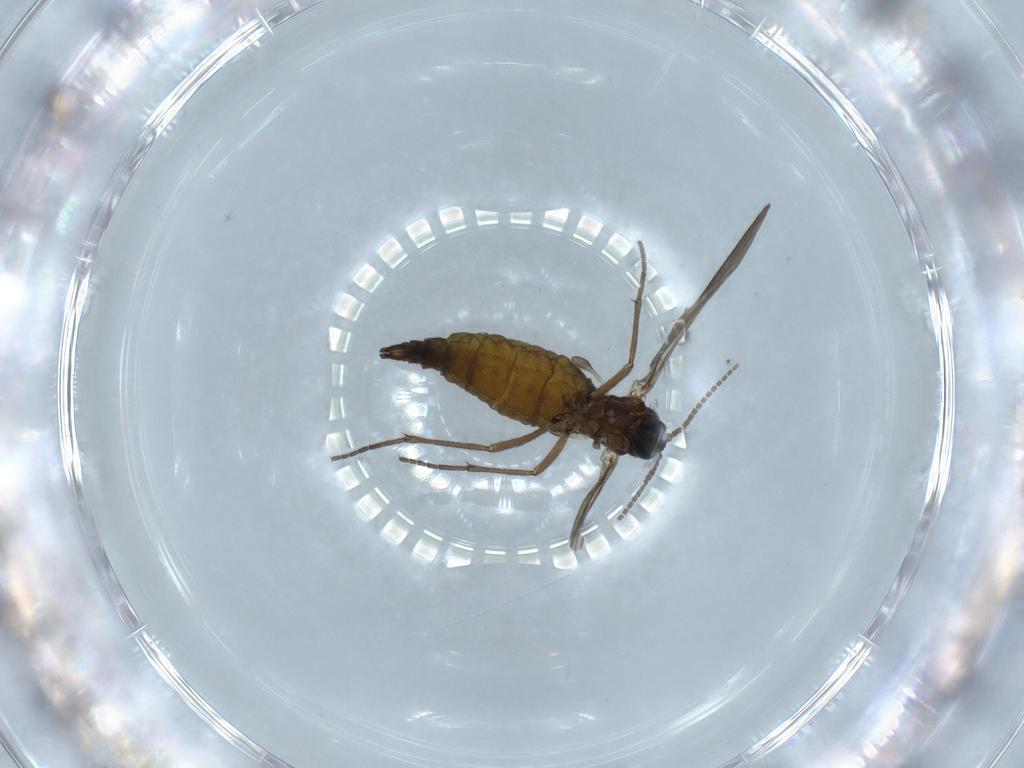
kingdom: Animalia
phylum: Arthropoda
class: Insecta
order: Diptera
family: Sciaridae
